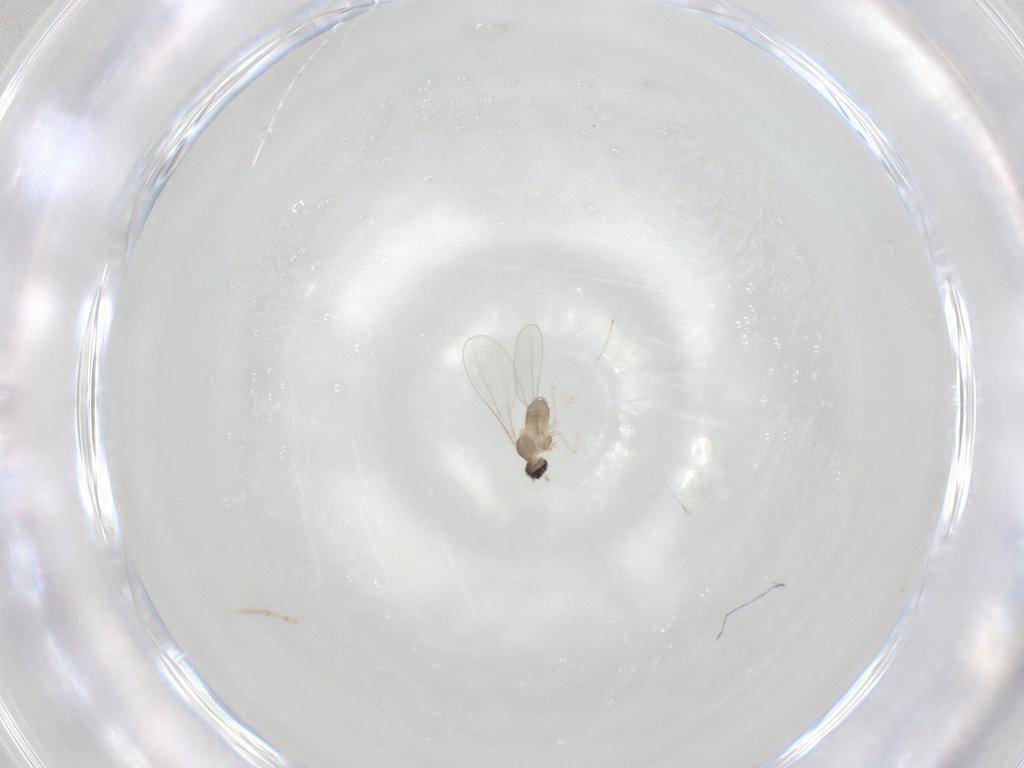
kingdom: Animalia
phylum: Arthropoda
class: Insecta
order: Diptera
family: Cecidomyiidae
